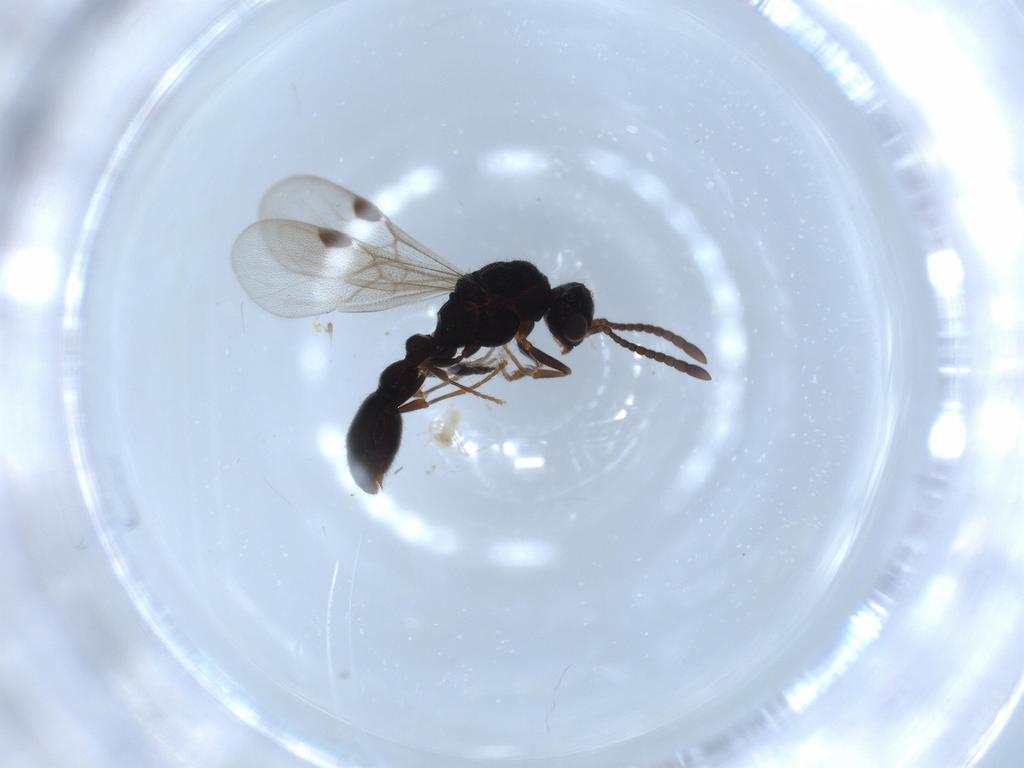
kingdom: Animalia
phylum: Arthropoda
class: Insecta
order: Hymenoptera
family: Formicidae
